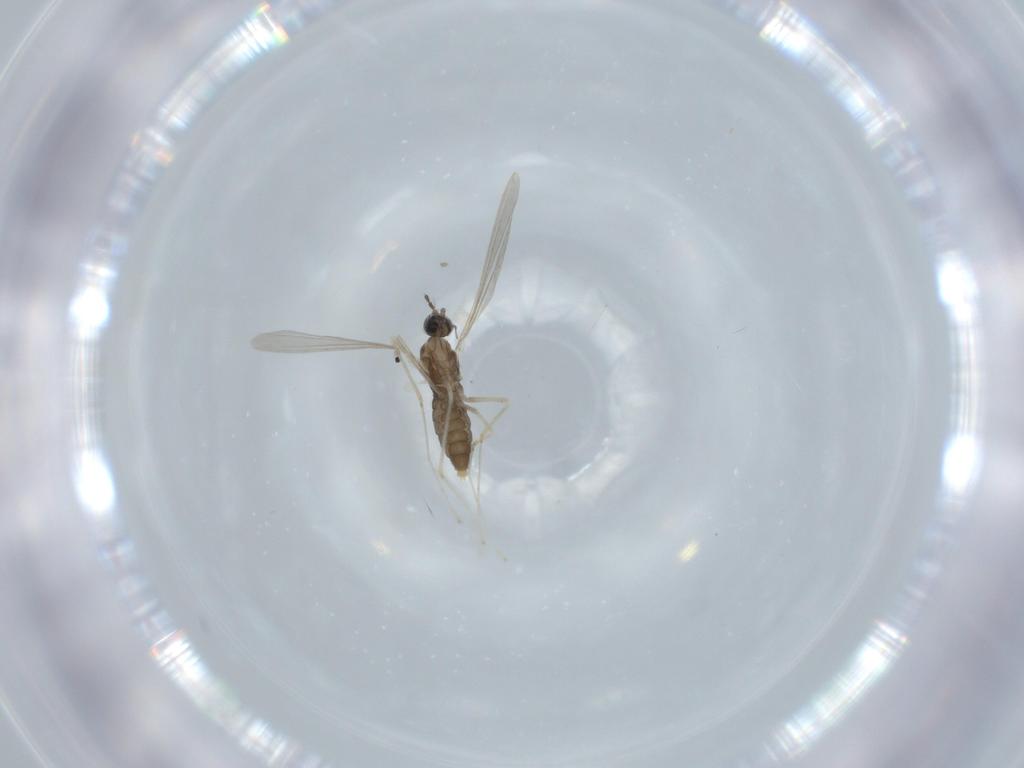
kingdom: Animalia
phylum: Arthropoda
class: Insecta
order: Diptera
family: Cecidomyiidae
